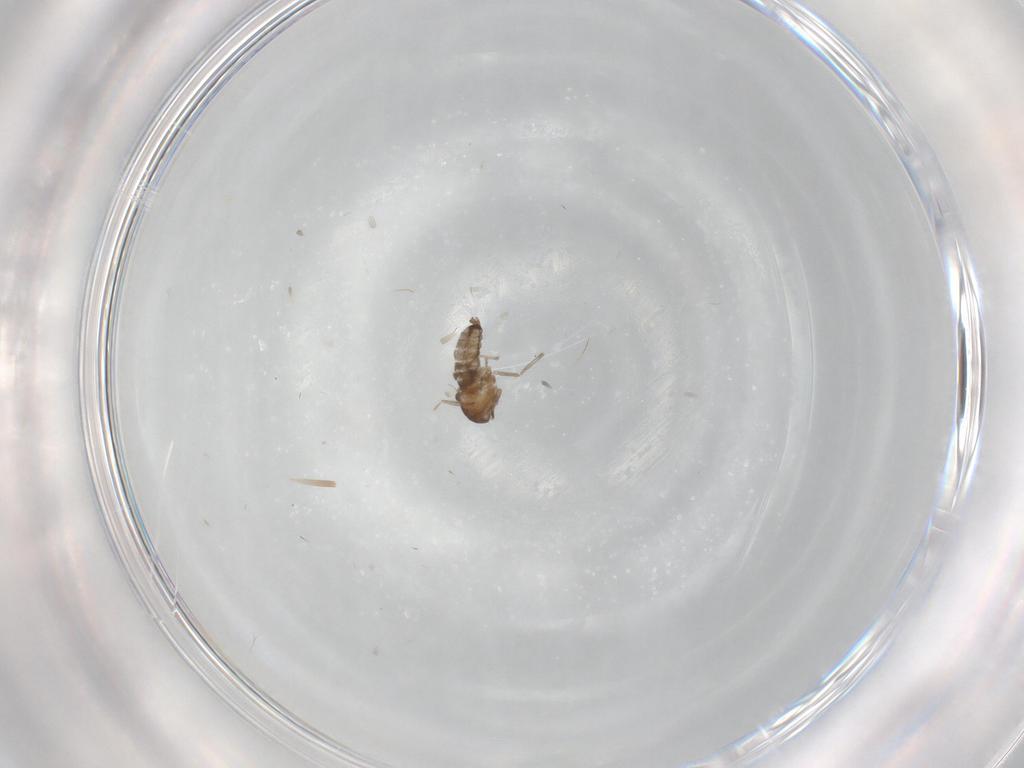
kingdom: Animalia
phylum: Arthropoda
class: Insecta
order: Diptera
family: Cecidomyiidae
